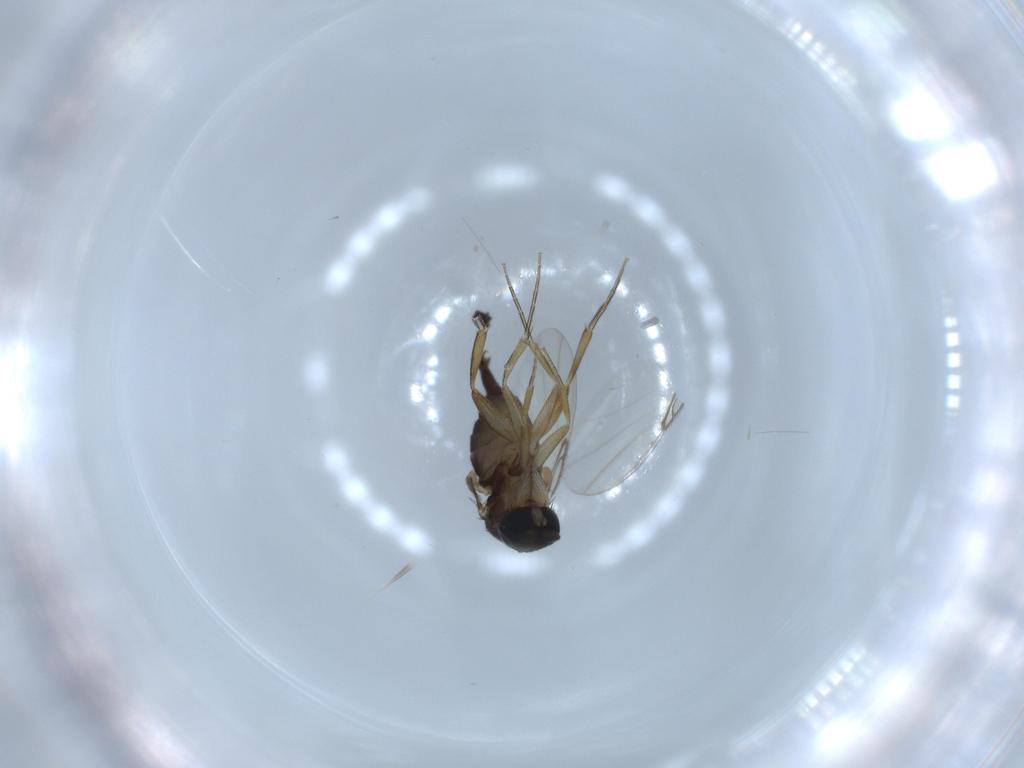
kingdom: Animalia
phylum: Arthropoda
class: Insecta
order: Diptera
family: Phoridae
